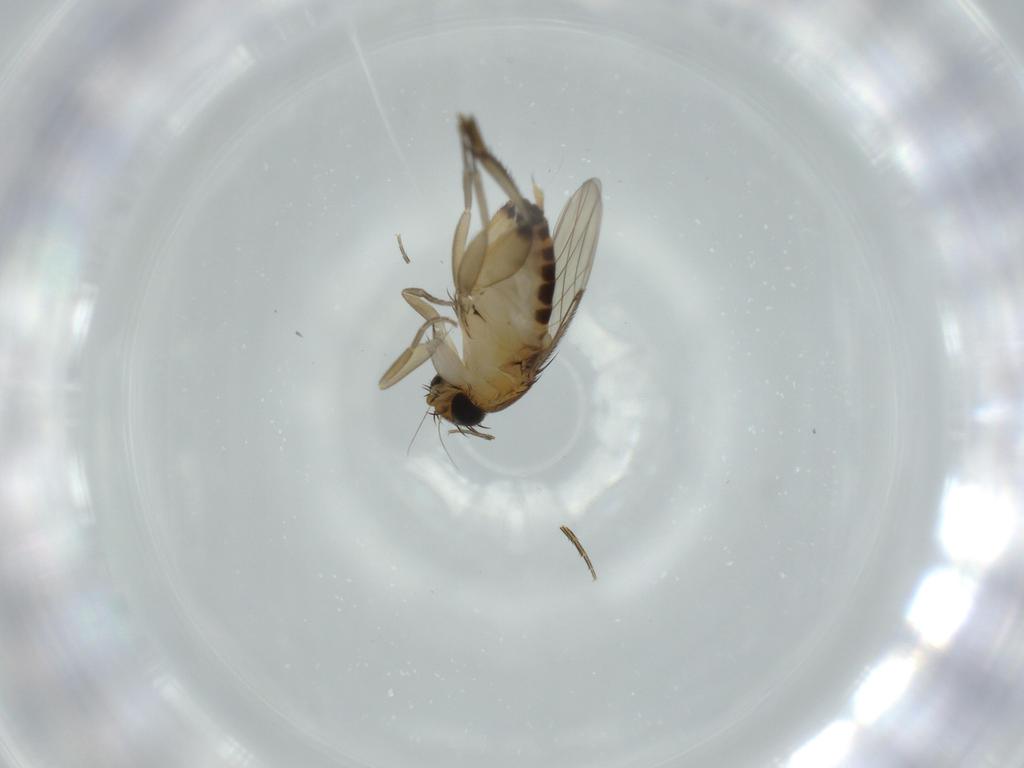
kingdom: Animalia
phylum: Arthropoda
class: Insecta
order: Diptera
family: Phoridae
